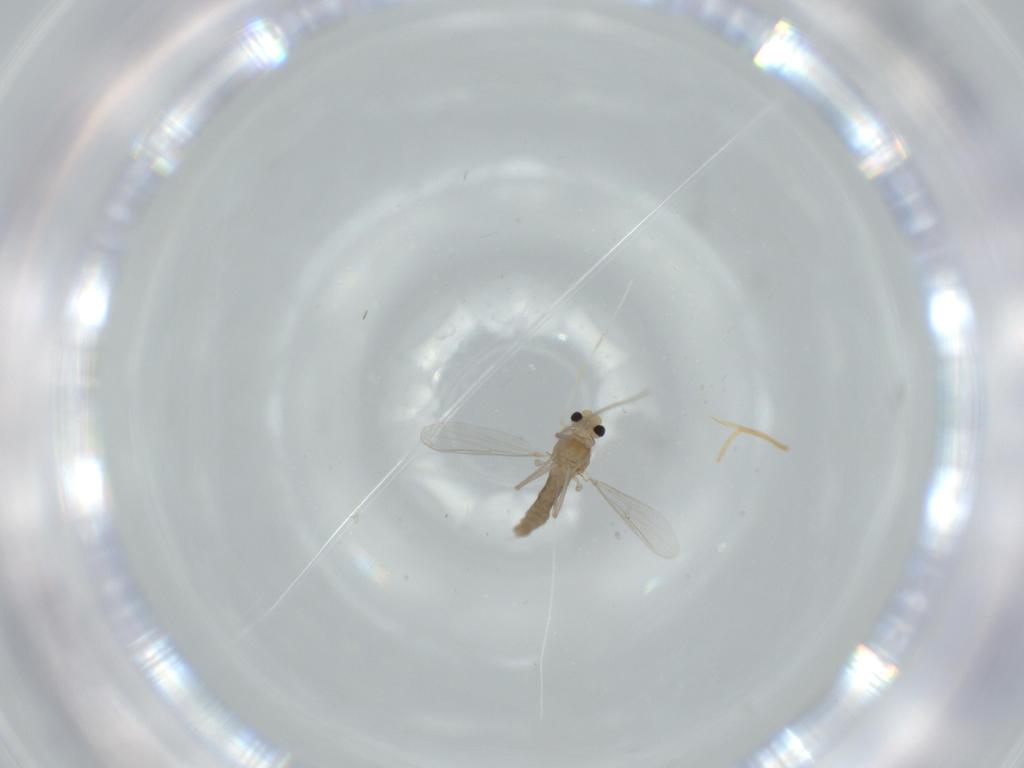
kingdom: Animalia
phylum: Arthropoda
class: Insecta
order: Diptera
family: Chironomidae
